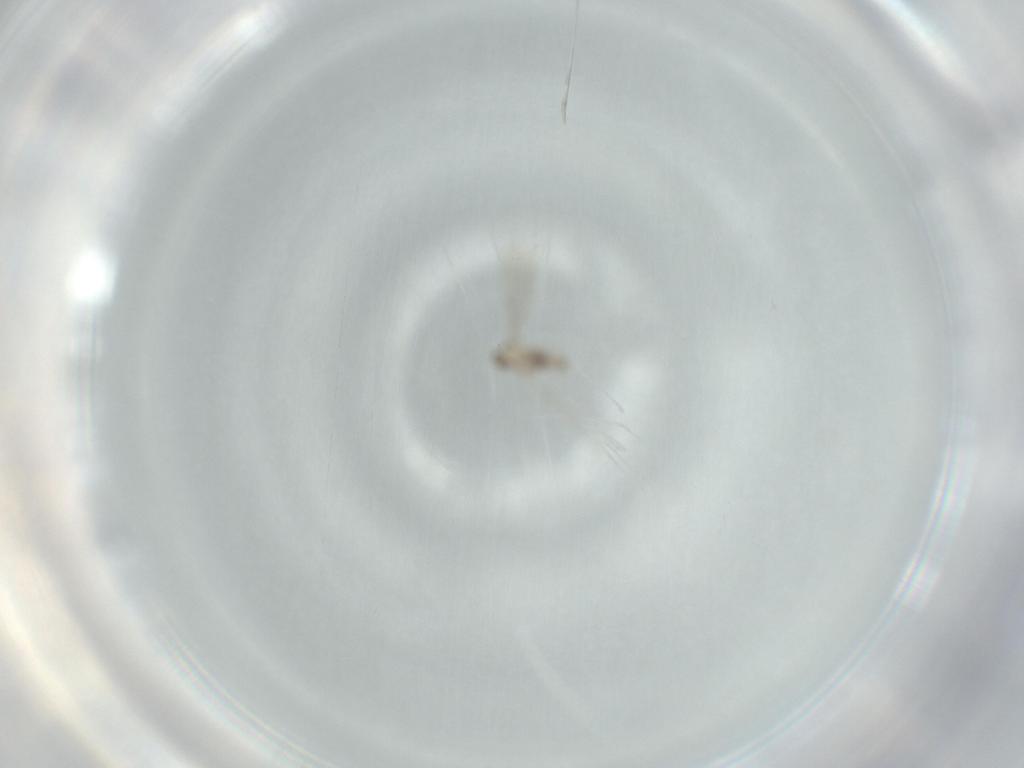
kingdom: Animalia
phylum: Arthropoda
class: Insecta
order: Diptera
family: Cecidomyiidae
